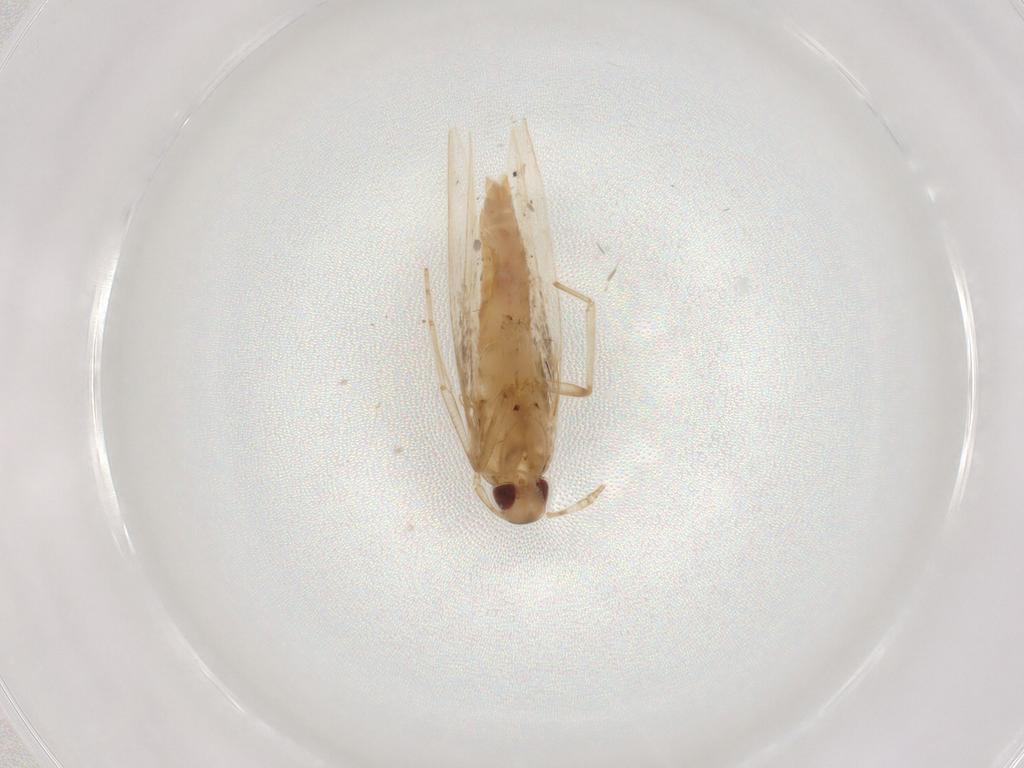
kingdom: Animalia
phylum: Arthropoda
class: Insecta
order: Lepidoptera
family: Cosmopterigidae
